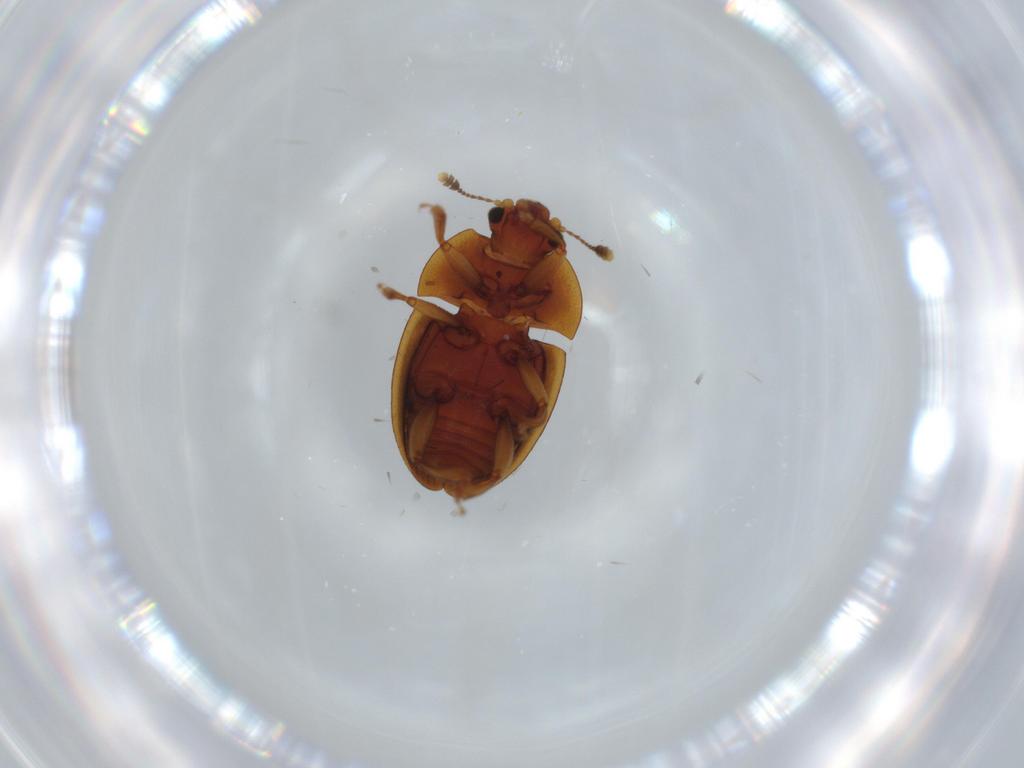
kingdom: Animalia
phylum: Arthropoda
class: Insecta
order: Coleoptera
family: Nitidulidae
